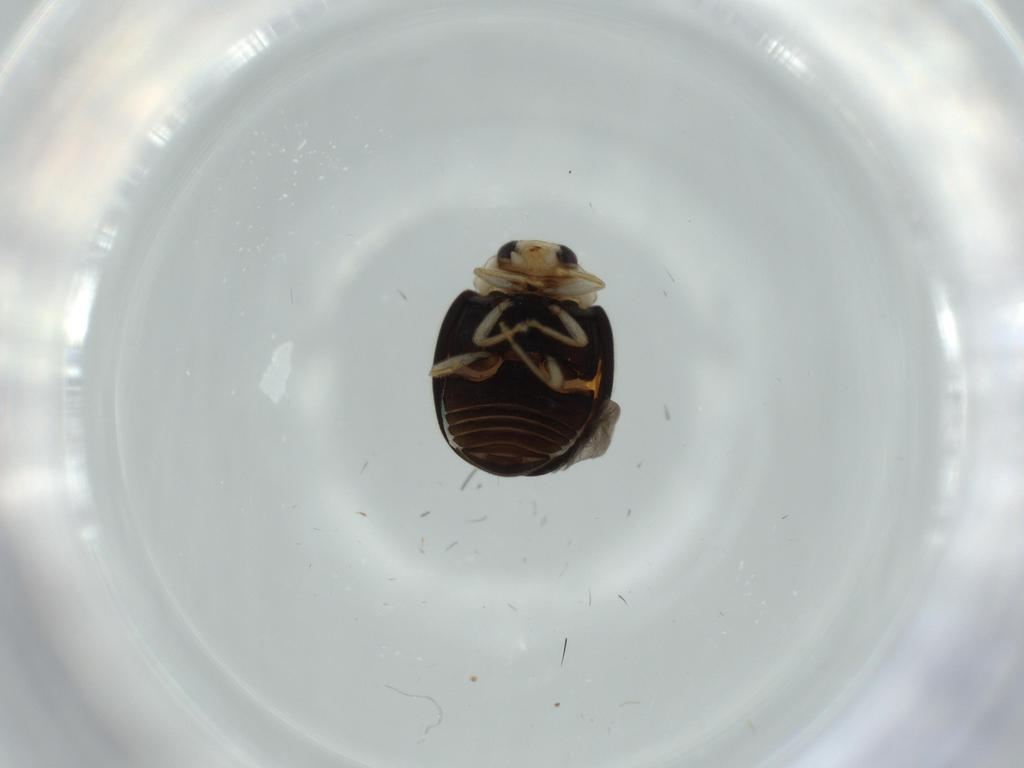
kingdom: Animalia
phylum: Arthropoda
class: Insecta
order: Coleoptera
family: Coccinellidae
